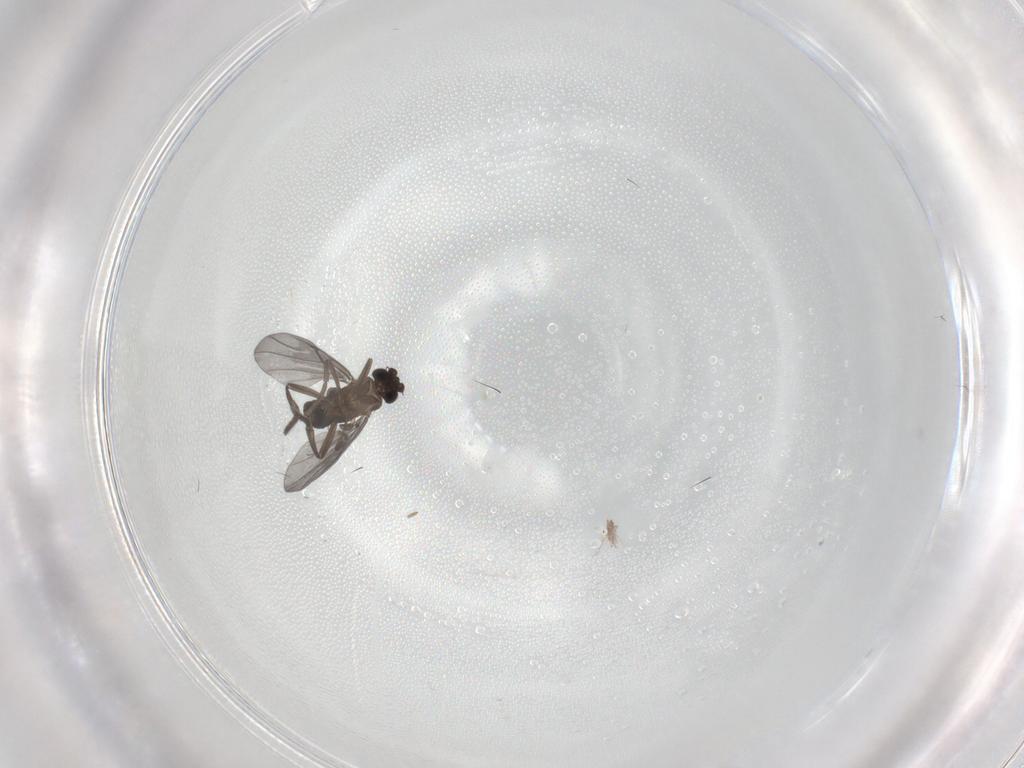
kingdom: Animalia
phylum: Arthropoda
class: Insecta
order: Diptera
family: Phoridae
